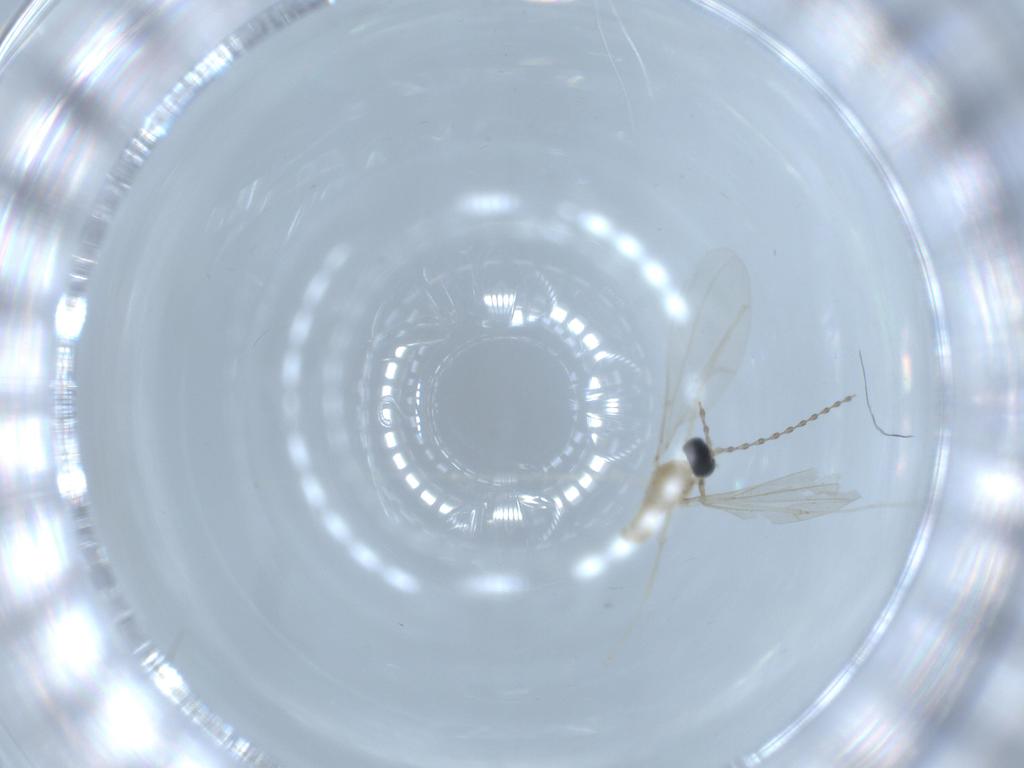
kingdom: Animalia
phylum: Arthropoda
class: Insecta
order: Diptera
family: Cecidomyiidae
